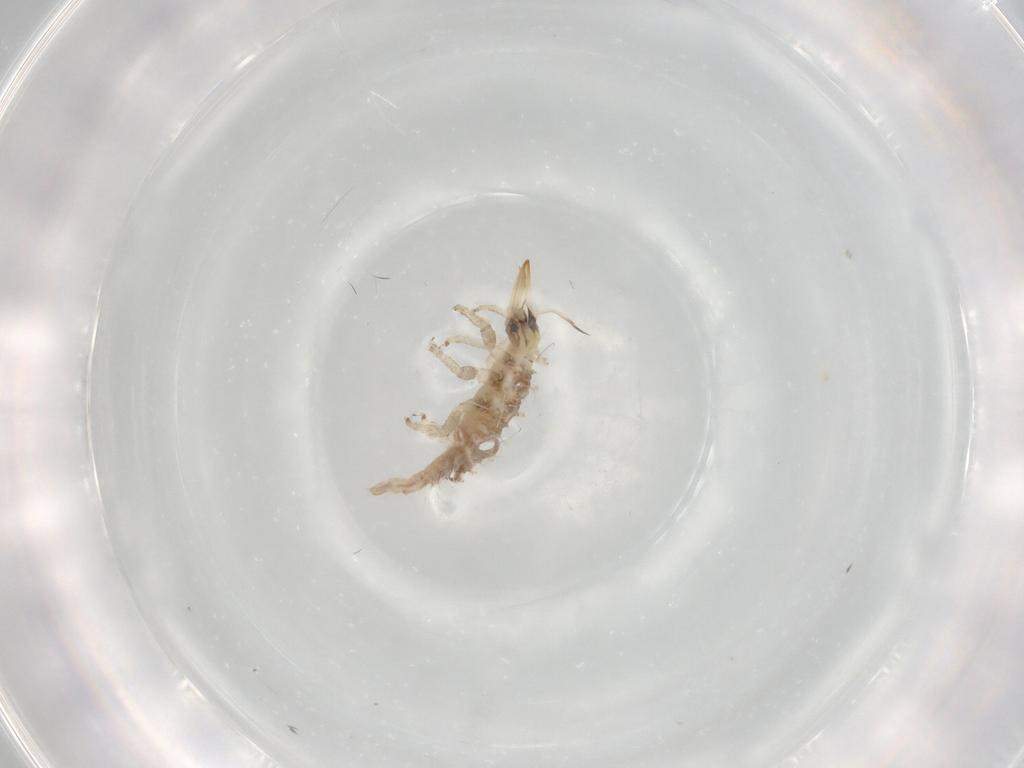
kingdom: Animalia
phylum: Arthropoda
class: Insecta
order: Neuroptera
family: Chrysopidae
